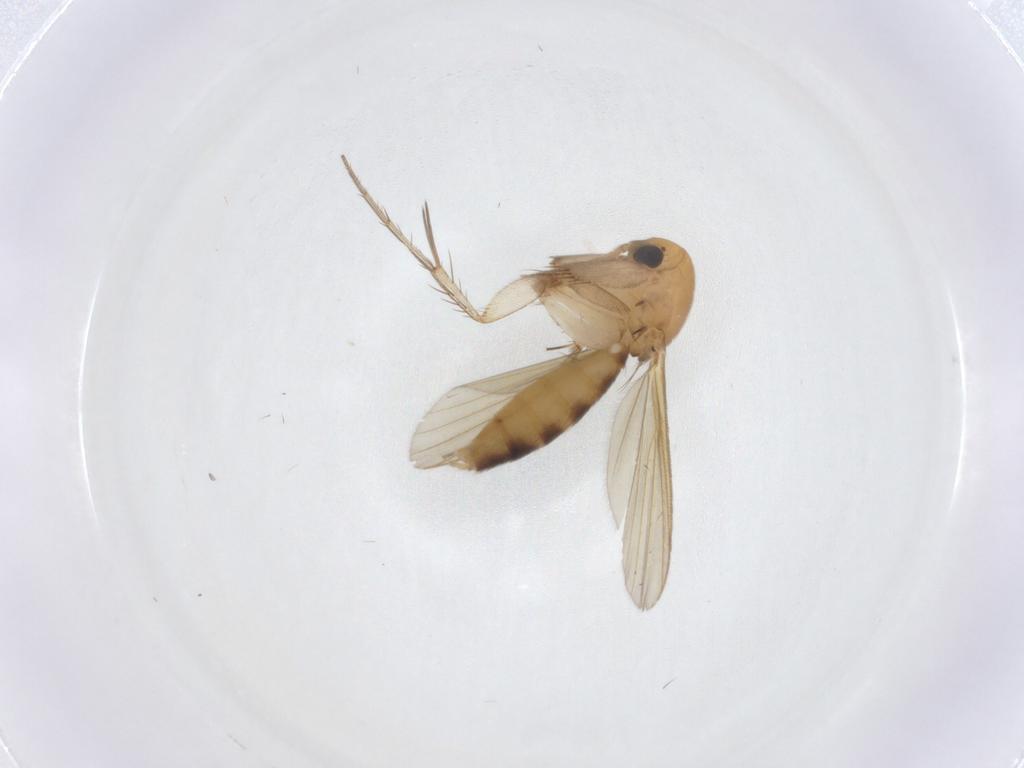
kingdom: Animalia
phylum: Arthropoda
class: Insecta
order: Diptera
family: Mycetophilidae
